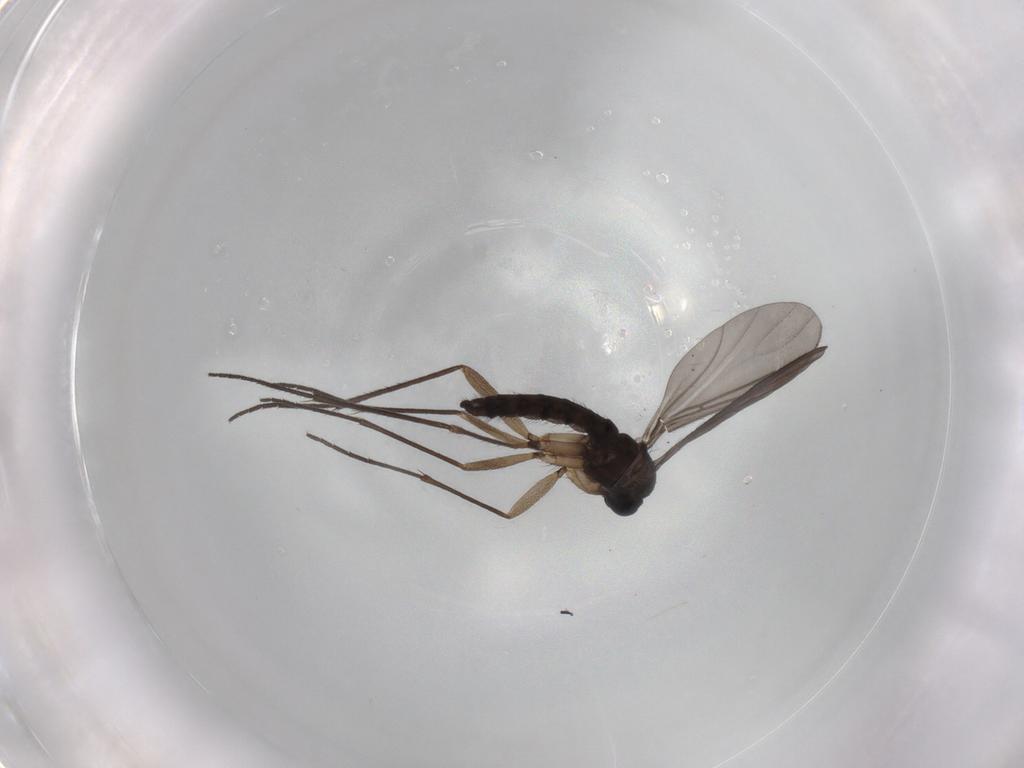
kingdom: Animalia
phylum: Arthropoda
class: Insecta
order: Diptera
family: Sciaridae
